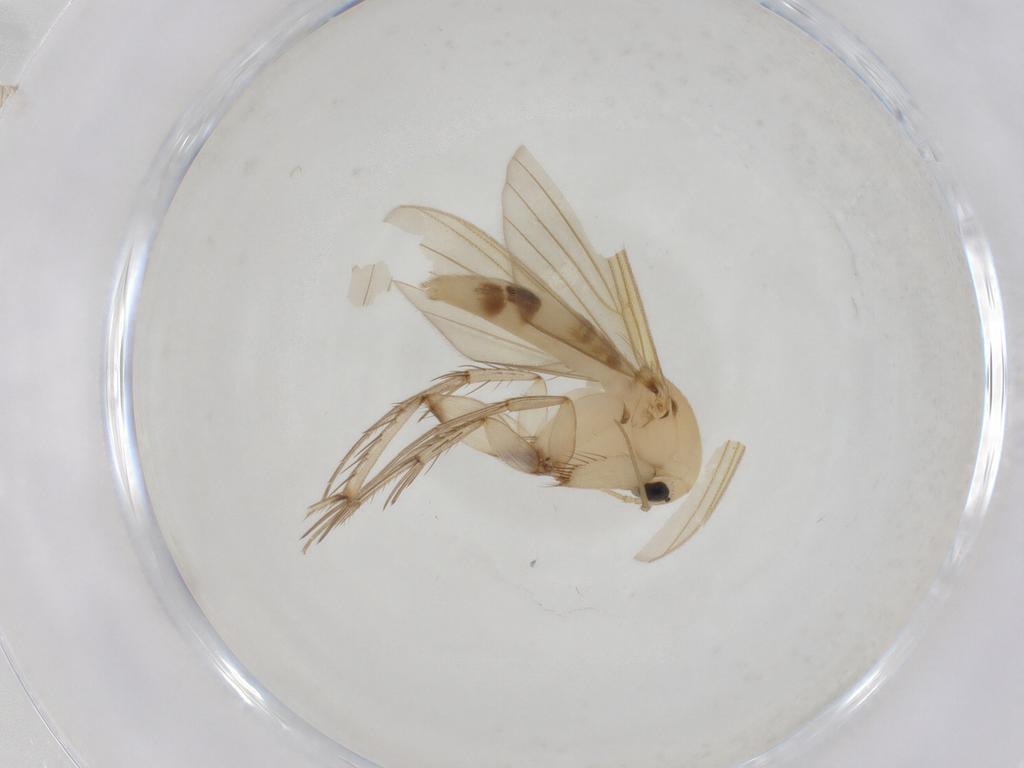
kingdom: Animalia
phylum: Arthropoda
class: Insecta
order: Diptera
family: Mycetophilidae
